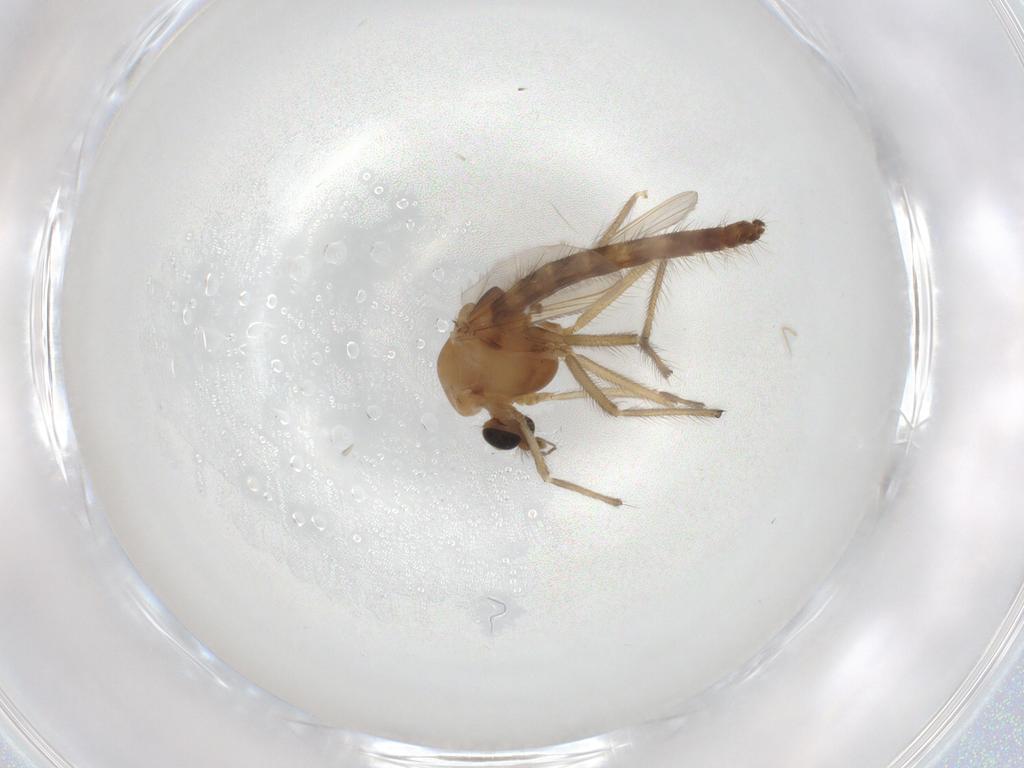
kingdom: Animalia
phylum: Arthropoda
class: Insecta
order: Diptera
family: Chironomidae
